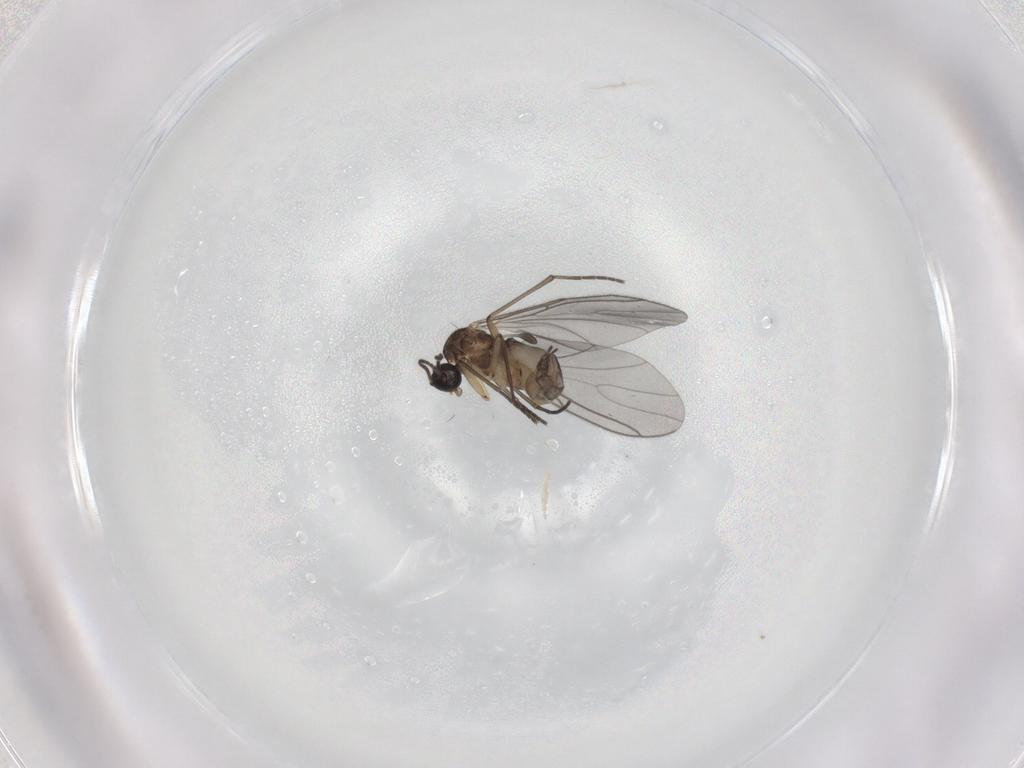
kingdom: Animalia
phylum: Arthropoda
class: Insecta
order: Diptera
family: Sciaridae
